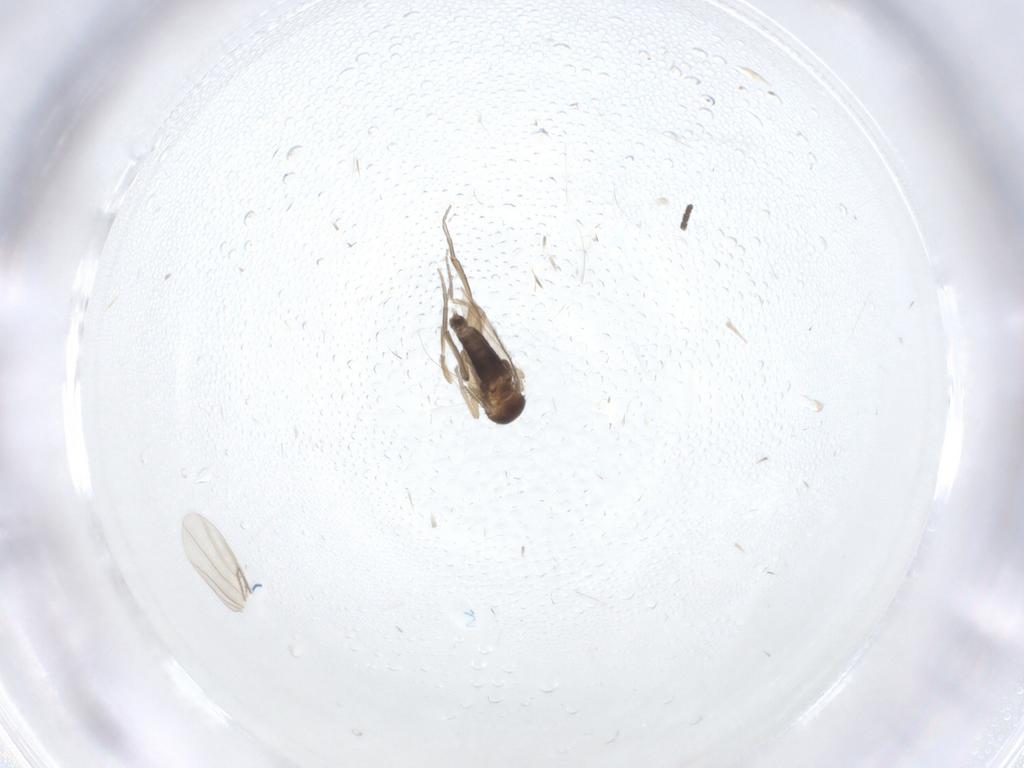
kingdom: Animalia
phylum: Arthropoda
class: Insecta
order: Diptera
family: Phoridae
